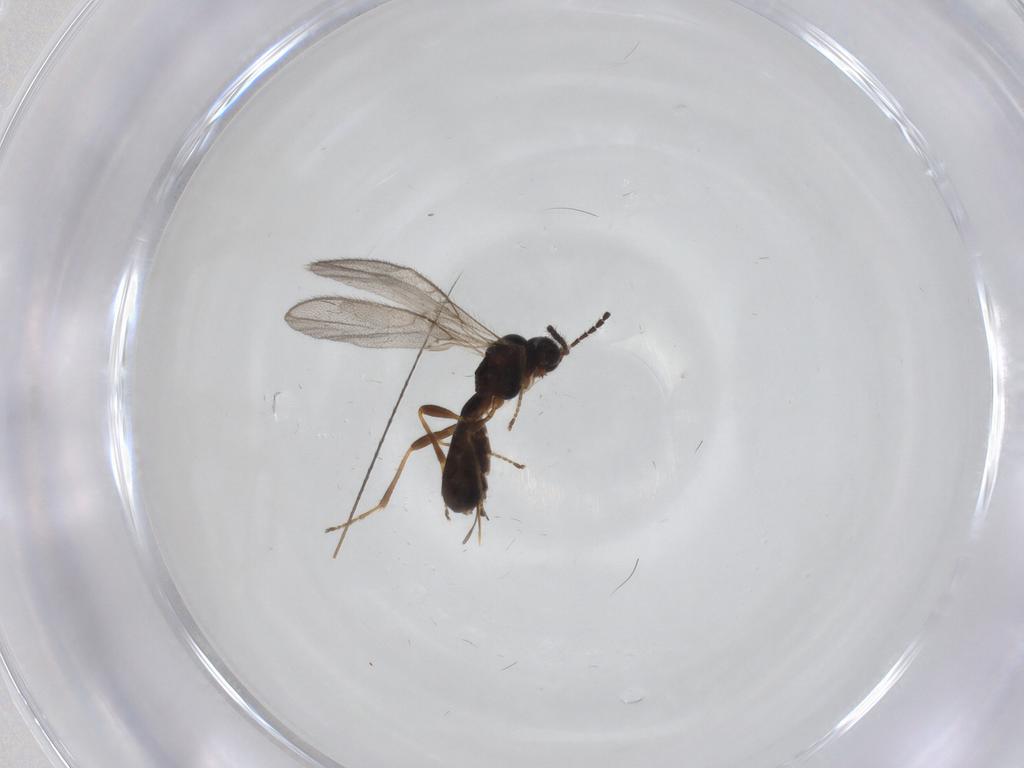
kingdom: Animalia
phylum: Arthropoda
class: Insecta
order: Hymenoptera
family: Braconidae
